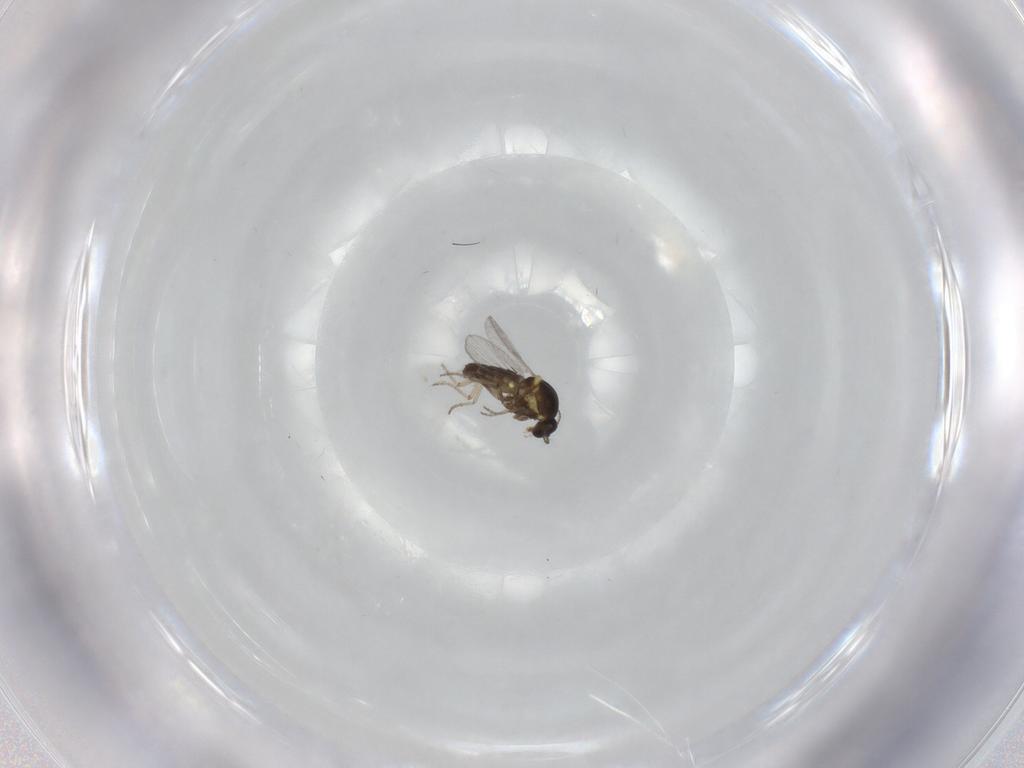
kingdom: Animalia
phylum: Arthropoda
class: Insecta
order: Diptera
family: Ceratopogonidae
